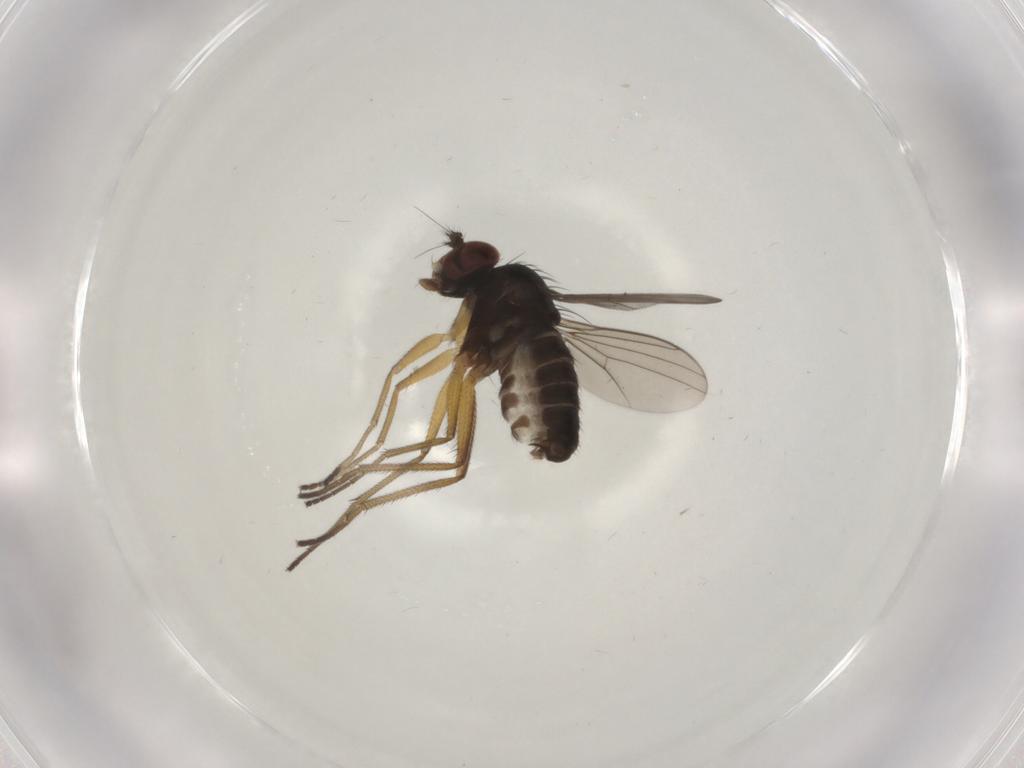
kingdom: Animalia
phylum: Arthropoda
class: Insecta
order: Diptera
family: Dolichopodidae
